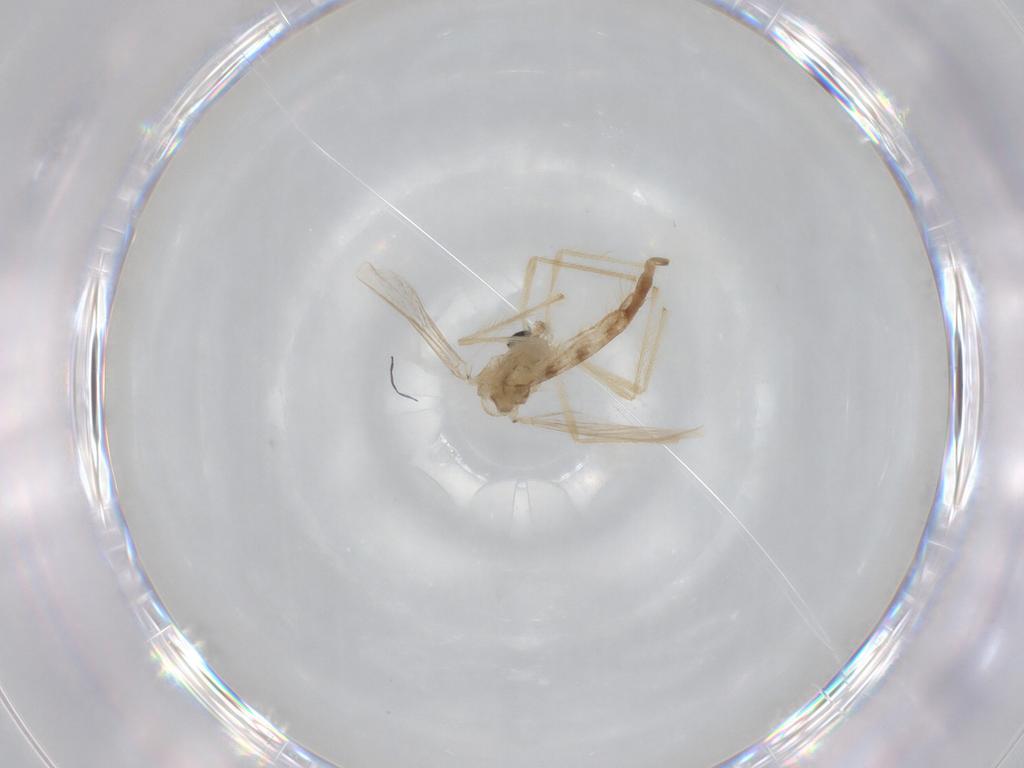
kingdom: Animalia
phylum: Arthropoda
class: Insecta
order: Diptera
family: Chironomidae
